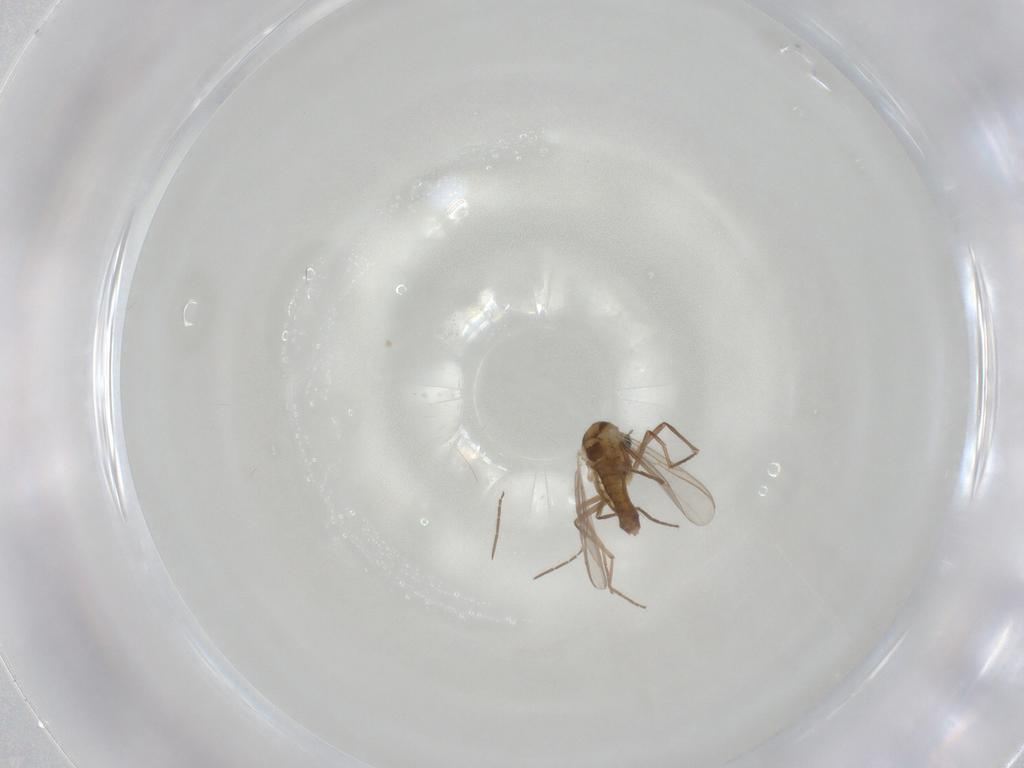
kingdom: Animalia
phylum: Arthropoda
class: Insecta
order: Diptera
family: Chironomidae
